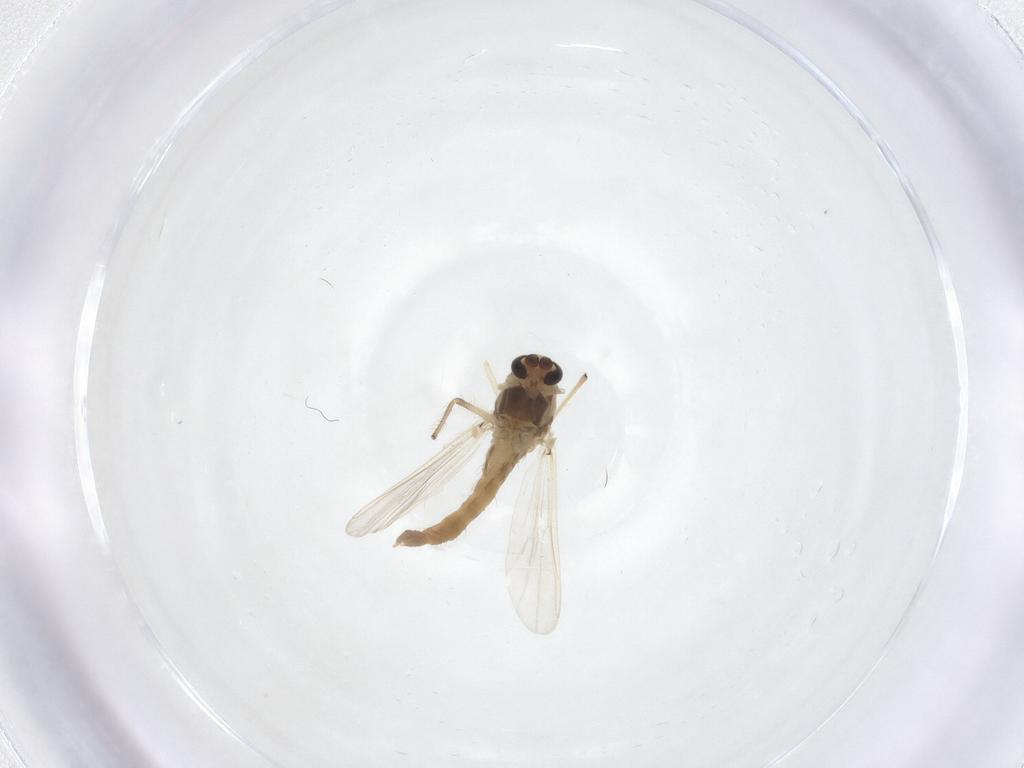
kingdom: Animalia
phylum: Arthropoda
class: Insecta
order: Diptera
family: Chironomidae
